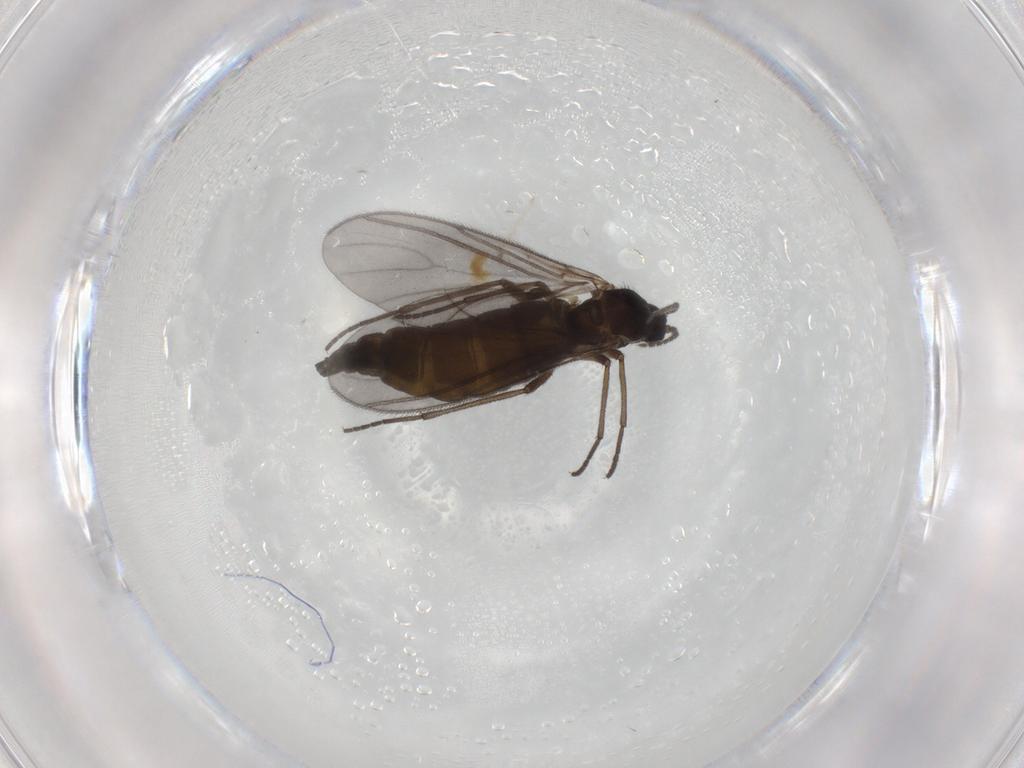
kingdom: Animalia
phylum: Arthropoda
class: Insecta
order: Diptera
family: Sciaridae
